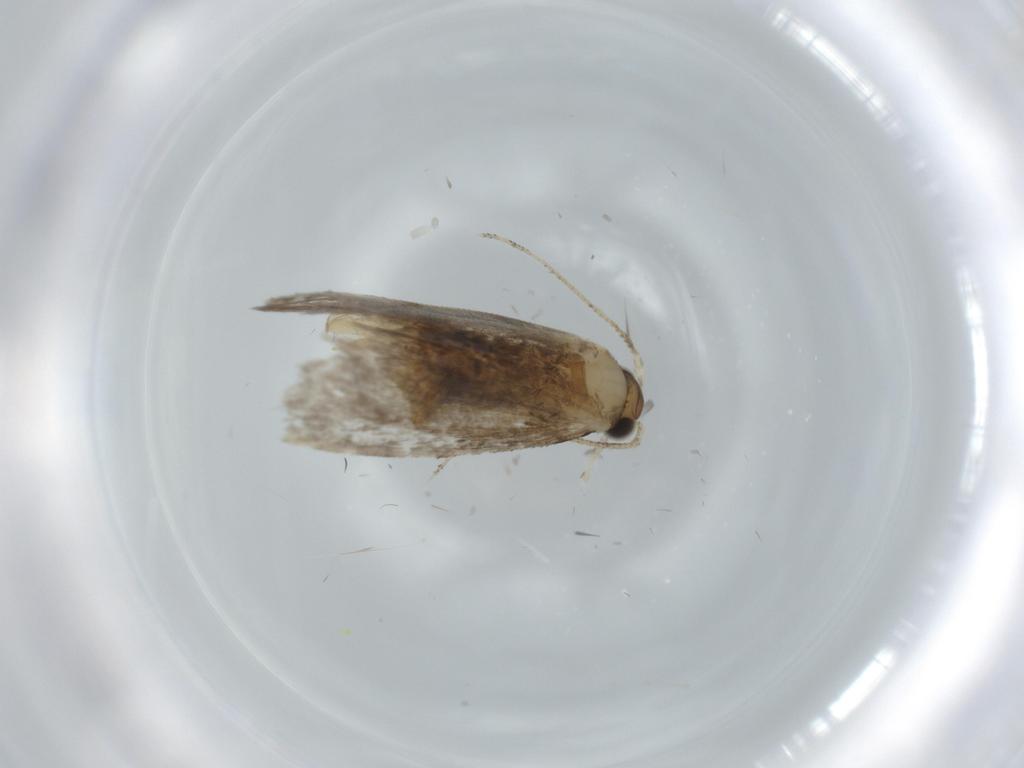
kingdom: Animalia
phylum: Arthropoda
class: Insecta
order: Lepidoptera
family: Tineidae
